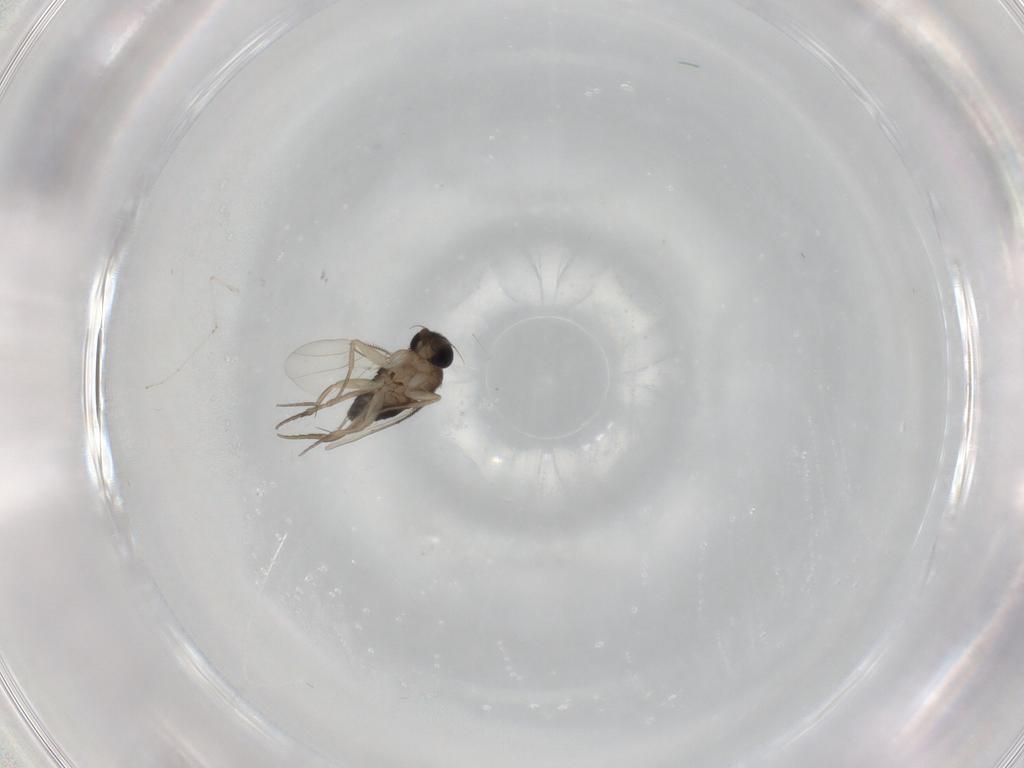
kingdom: Animalia
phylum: Arthropoda
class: Insecta
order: Diptera
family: Phoridae
